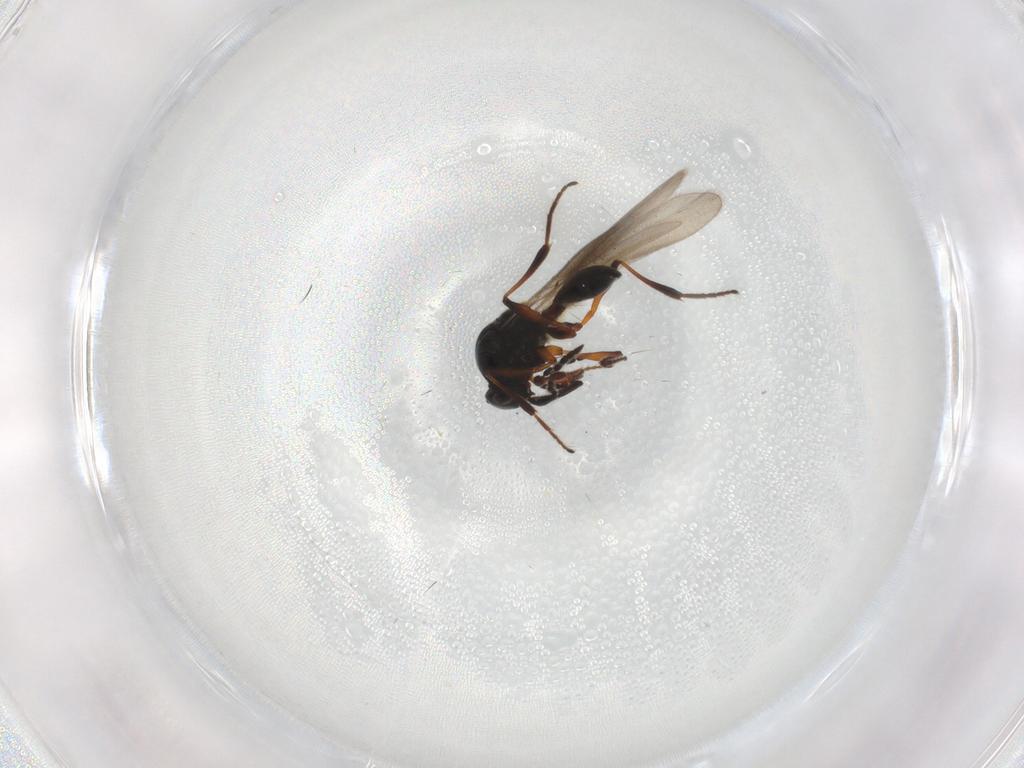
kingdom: Animalia
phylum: Arthropoda
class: Insecta
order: Hymenoptera
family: Platygastridae
